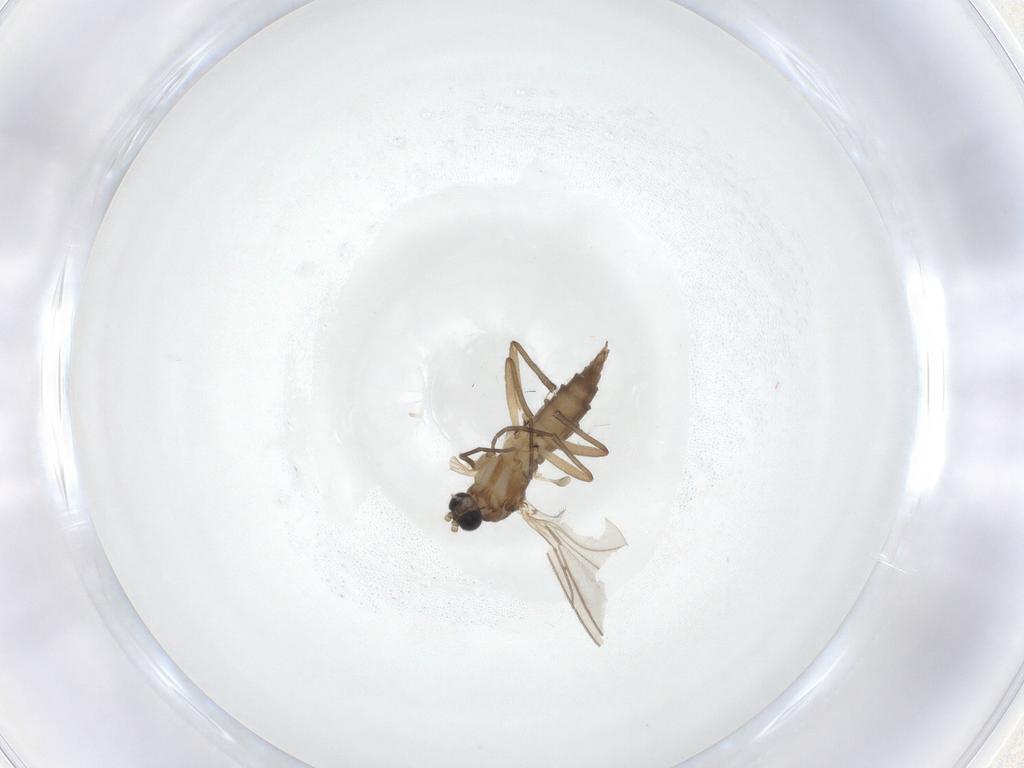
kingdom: Animalia
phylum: Arthropoda
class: Insecta
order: Diptera
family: Sciaridae
